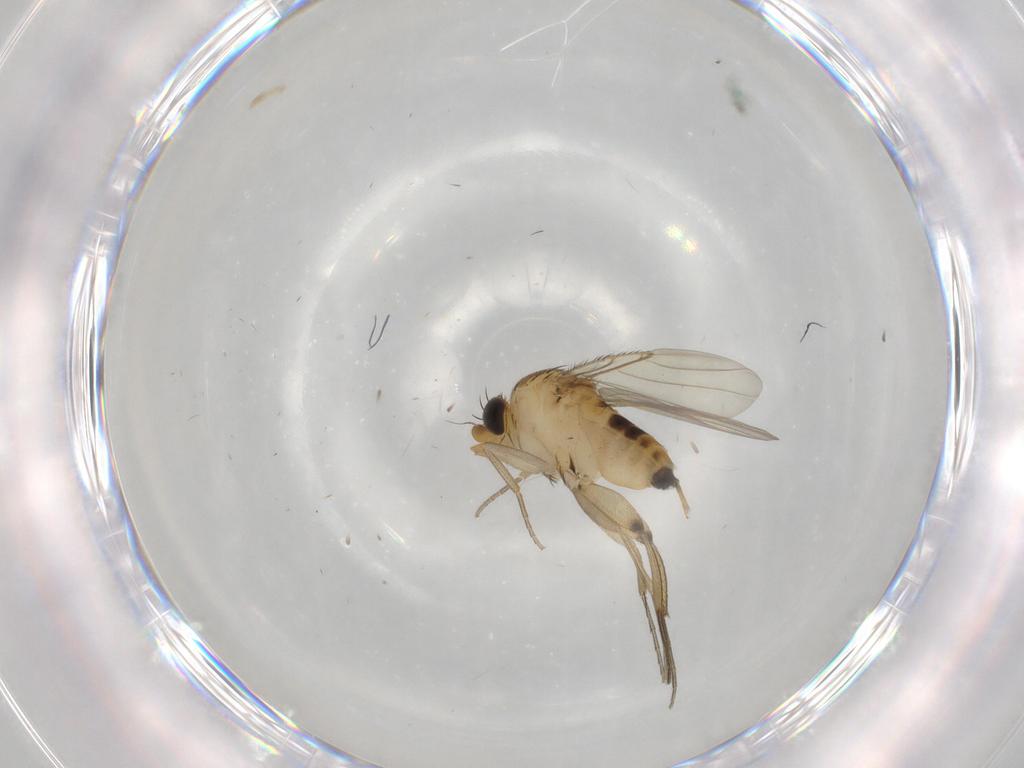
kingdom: Animalia
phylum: Arthropoda
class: Insecta
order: Diptera
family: Phoridae
